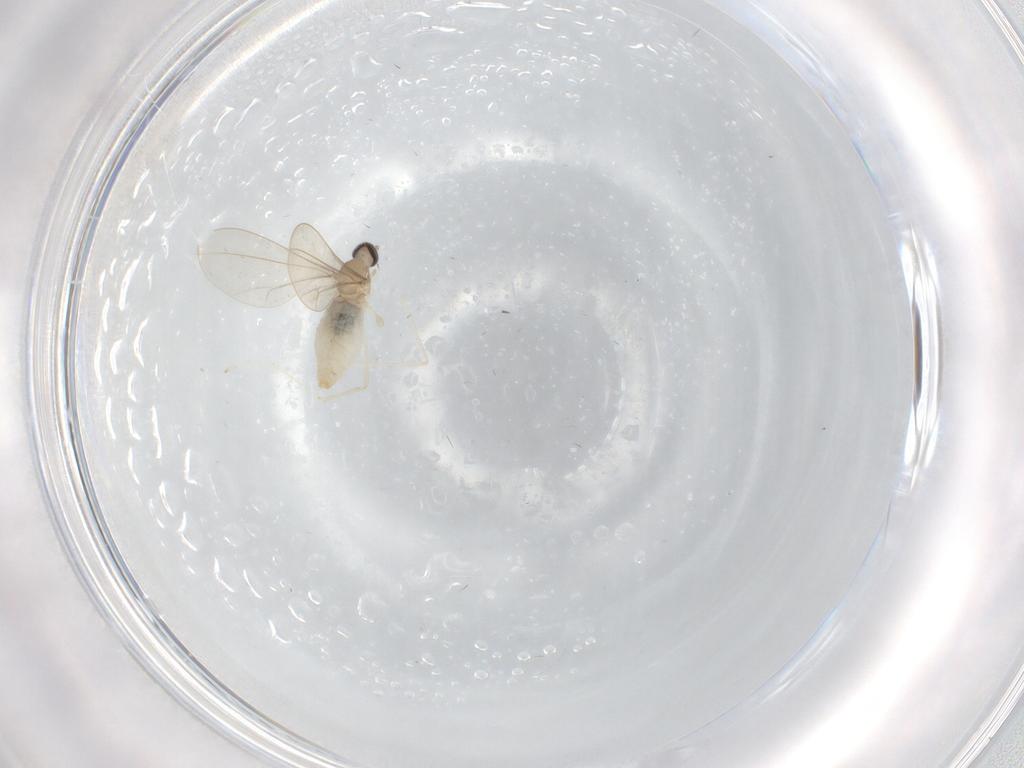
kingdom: Animalia
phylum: Arthropoda
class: Insecta
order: Diptera
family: Cecidomyiidae
